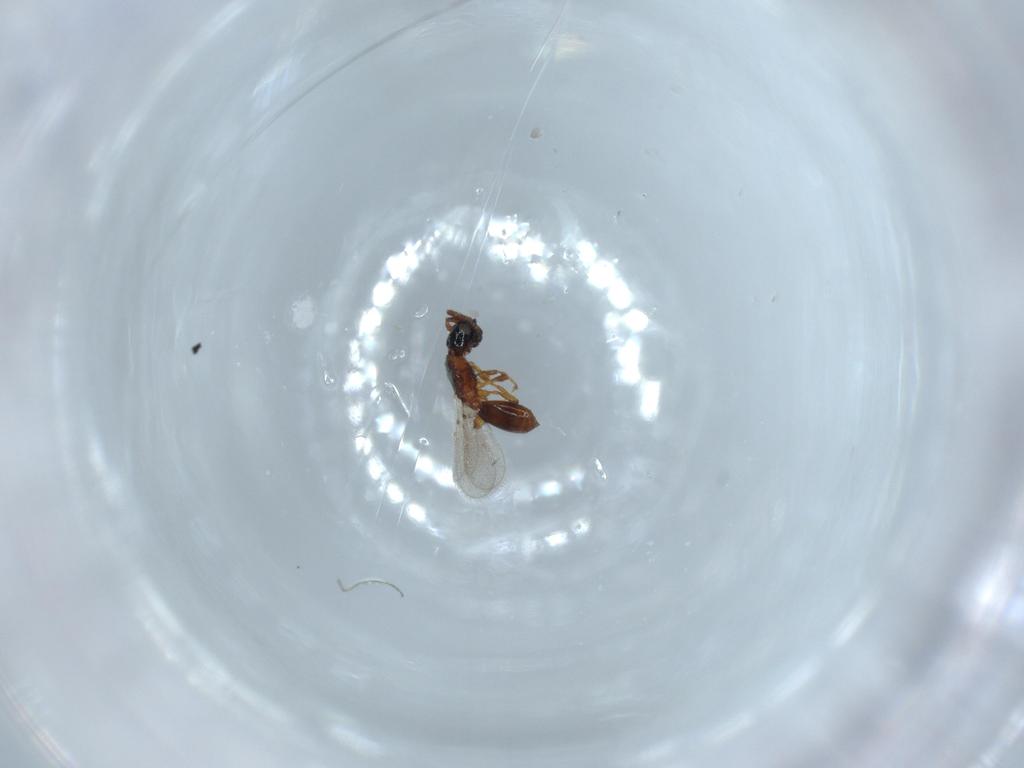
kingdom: Animalia
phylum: Arthropoda
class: Insecta
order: Hymenoptera
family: Diapriidae
